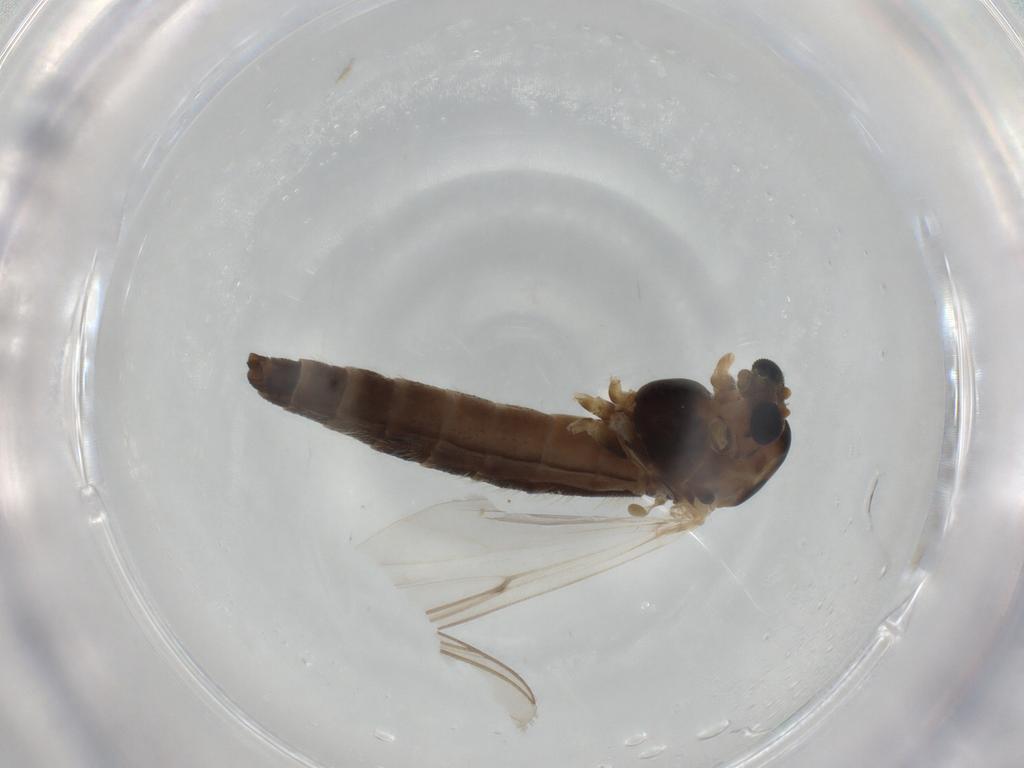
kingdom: Animalia
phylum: Arthropoda
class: Insecta
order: Diptera
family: Chironomidae
